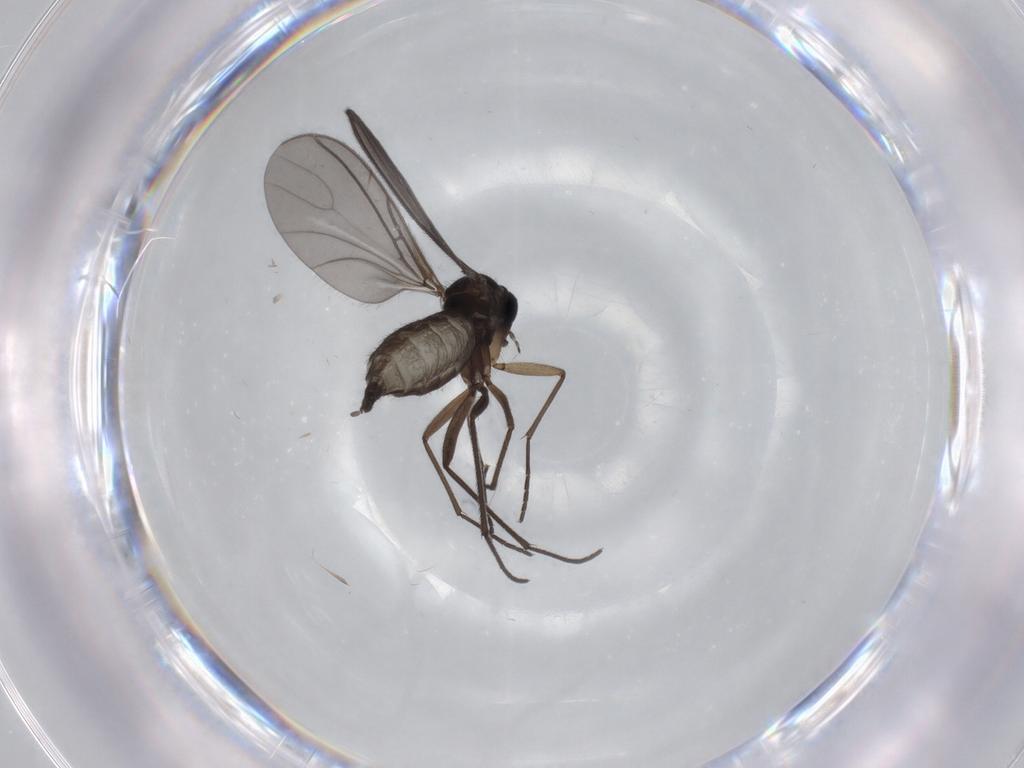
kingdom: Animalia
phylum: Arthropoda
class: Insecta
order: Diptera
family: Sciaridae
